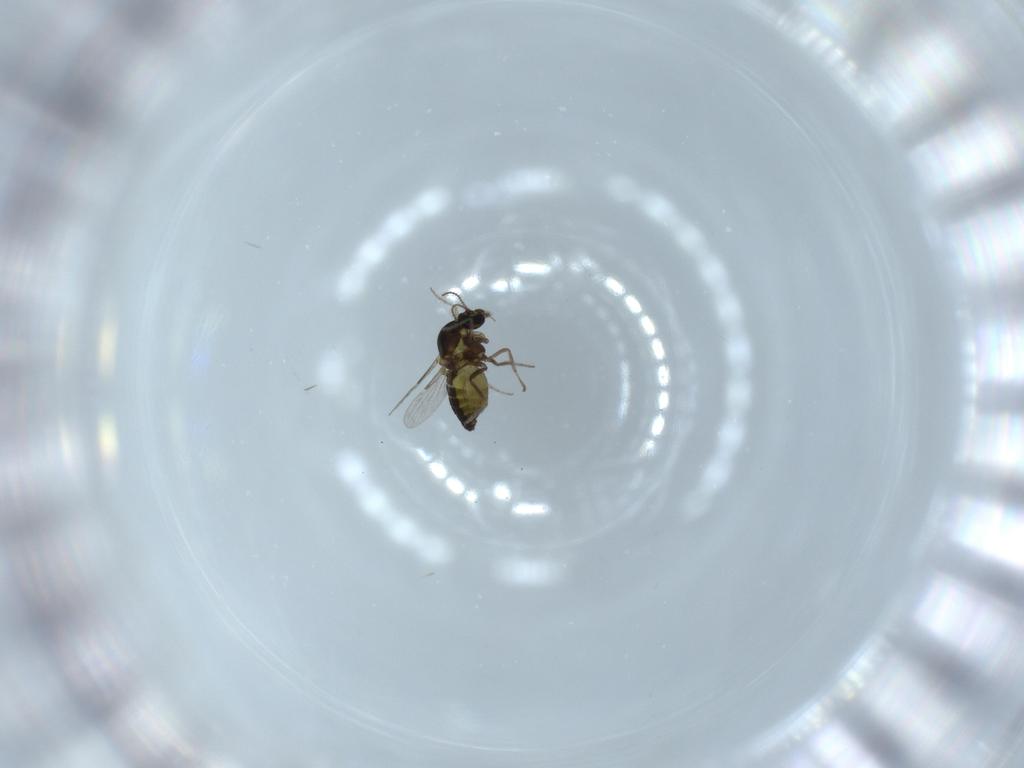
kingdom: Animalia
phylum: Arthropoda
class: Insecta
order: Diptera
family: Ceratopogonidae
